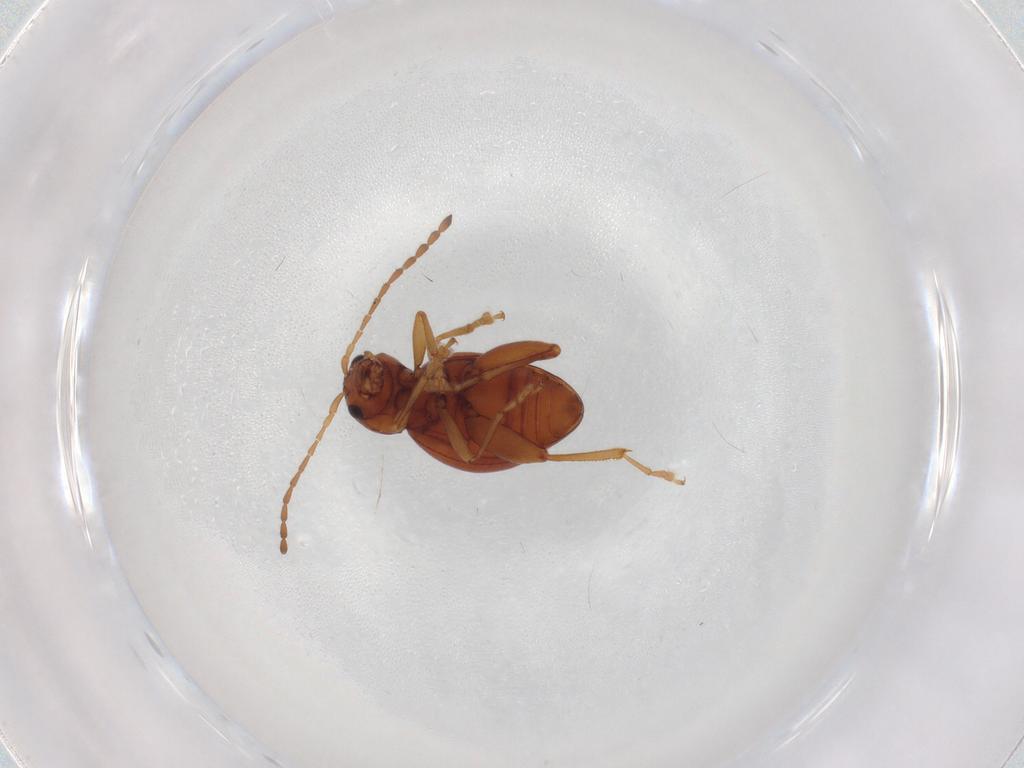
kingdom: Animalia
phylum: Arthropoda
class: Insecta
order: Coleoptera
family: Chrysomelidae
